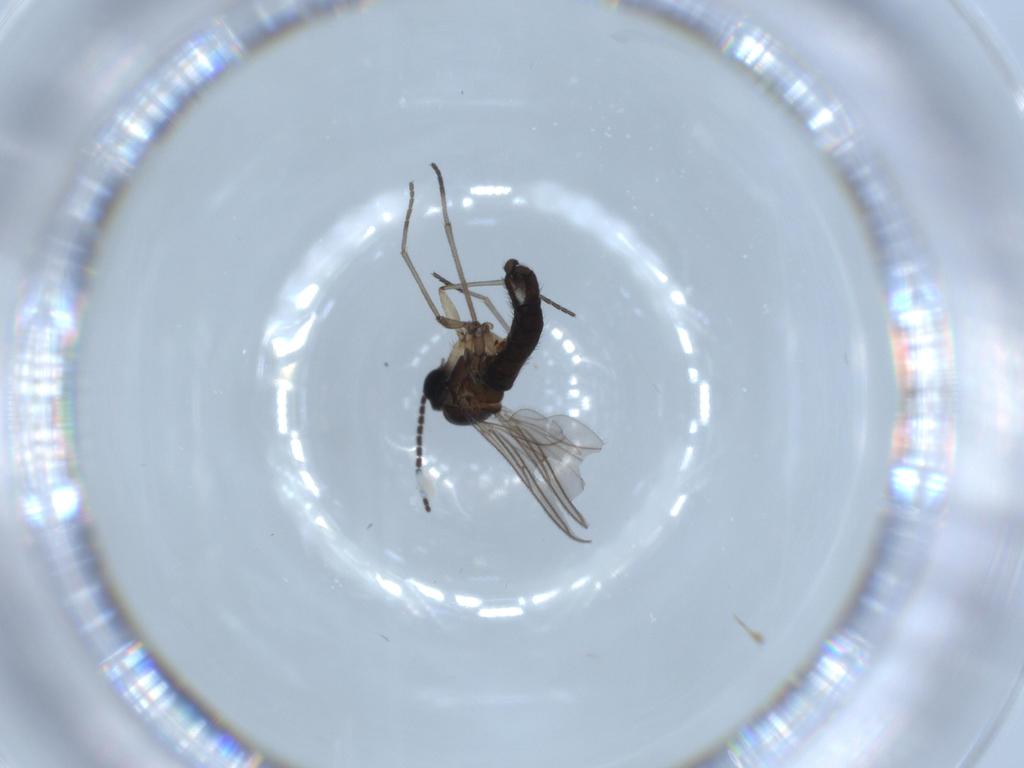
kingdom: Animalia
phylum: Arthropoda
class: Insecta
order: Diptera
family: Sciaridae
